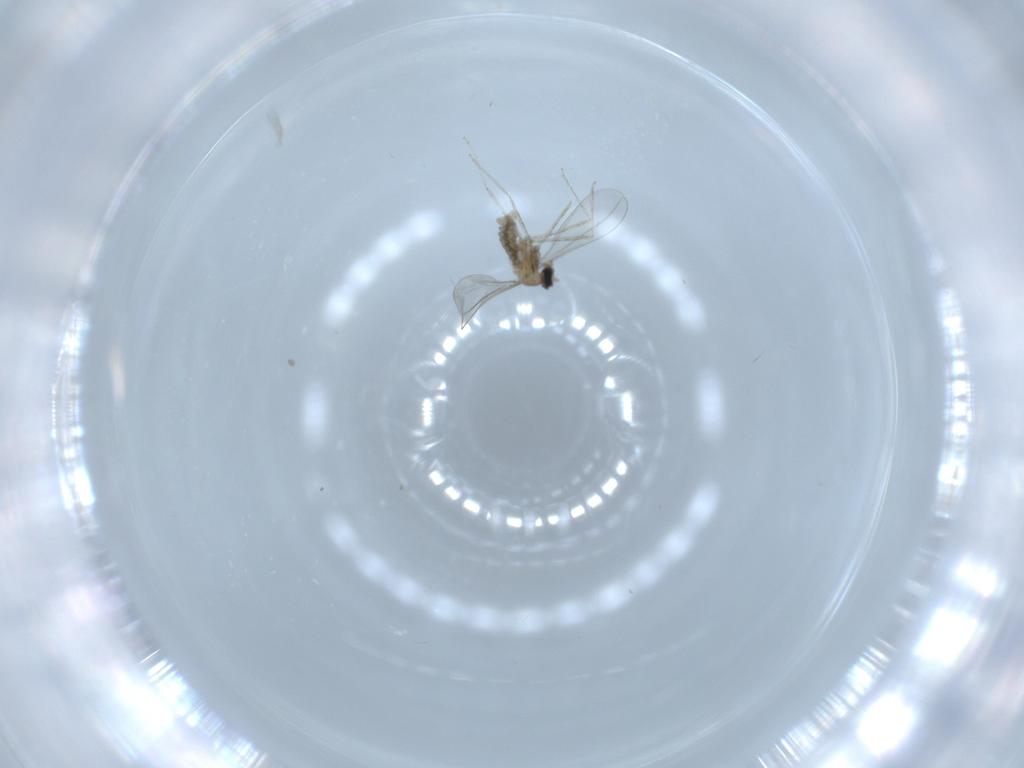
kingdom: Animalia
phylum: Arthropoda
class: Insecta
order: Diptera
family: Cecidomyiidae
